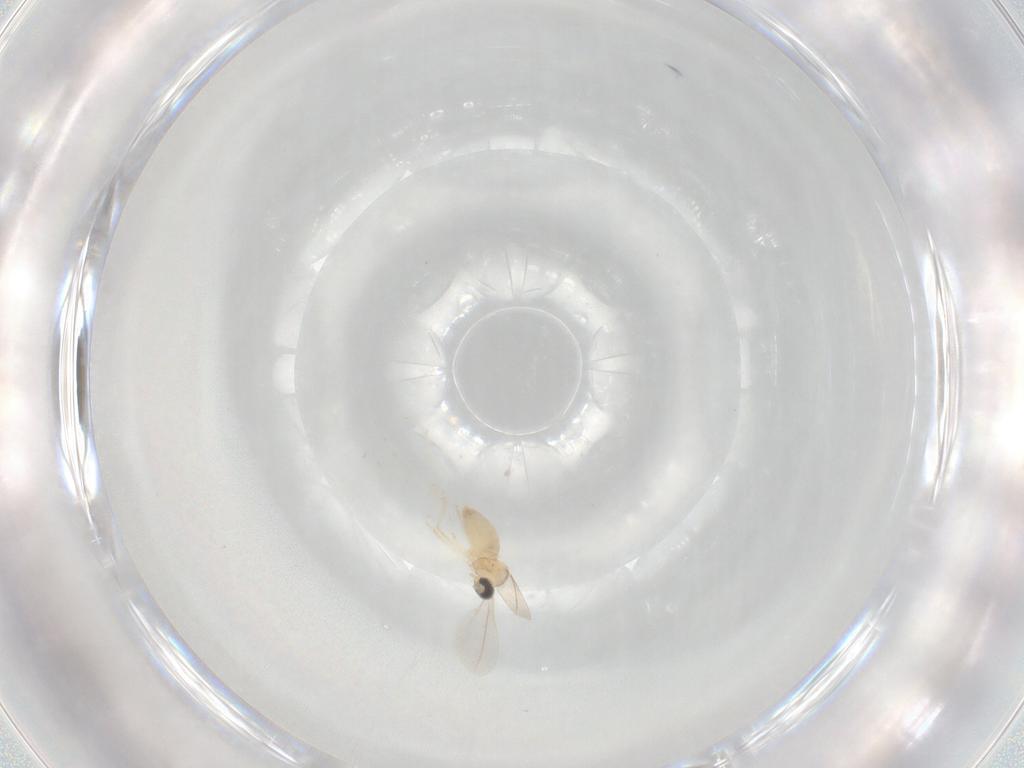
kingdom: Animalia
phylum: Arthropoda
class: Insecta
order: Diptera
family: Cecidomyiidae
